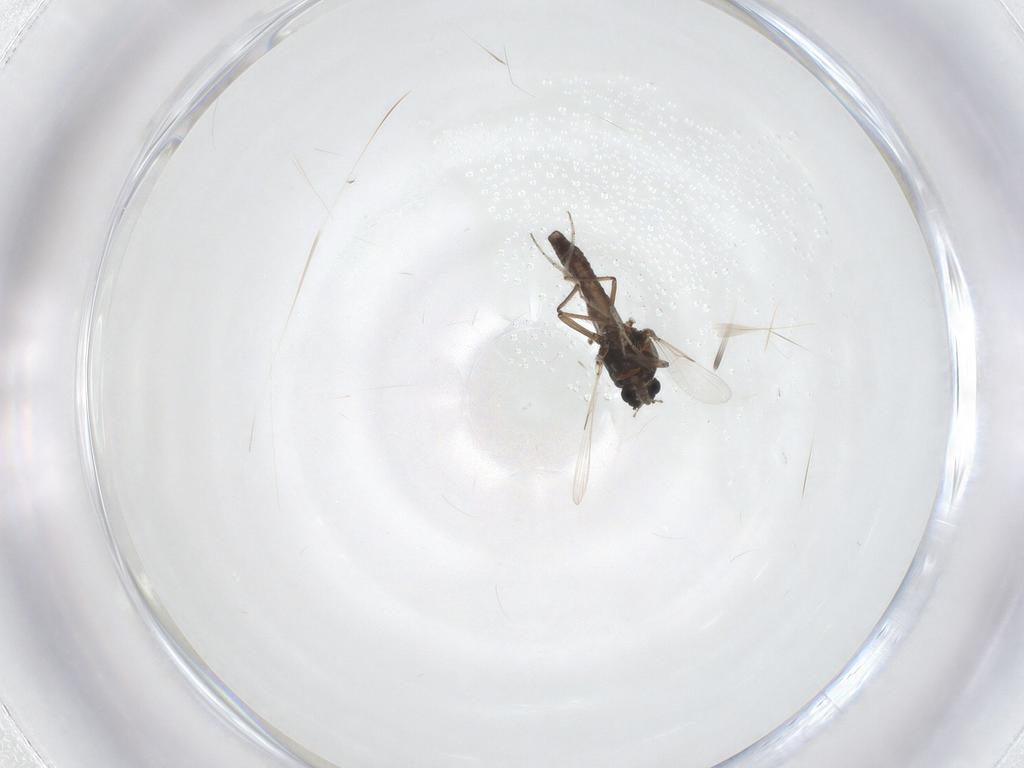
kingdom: Animalia
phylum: Arthropoda
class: Insecta
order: Diptera
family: Ceratopogonidae
